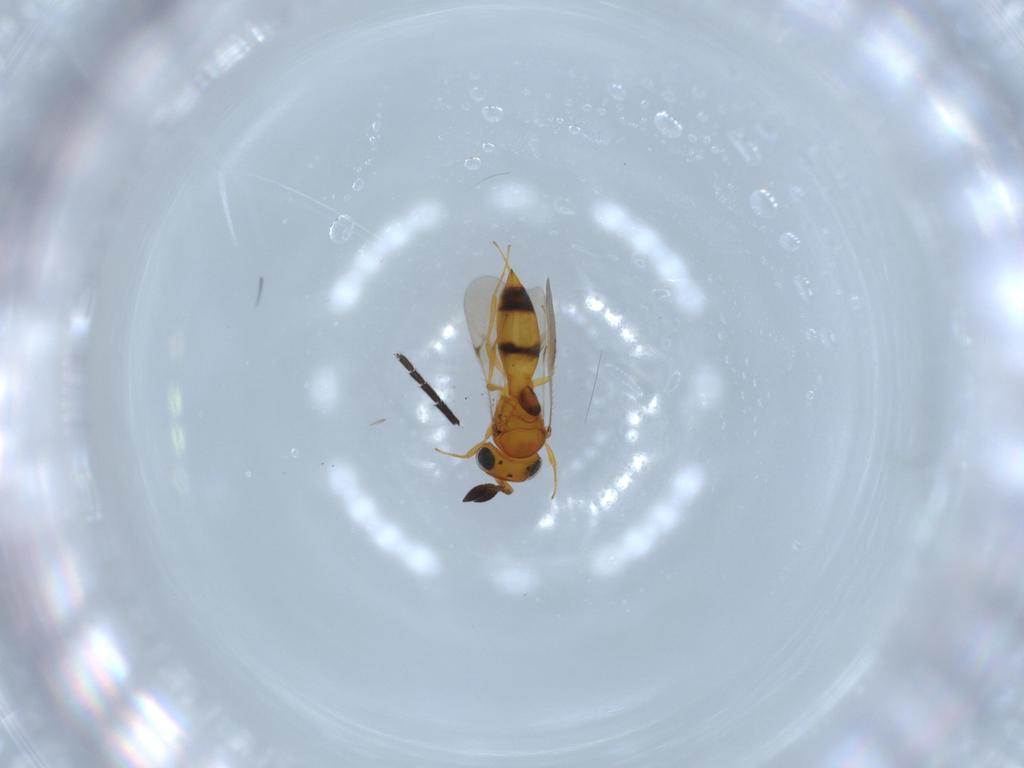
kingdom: Animalia
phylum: Arthropoda
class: Insecta
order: Hymenoptera
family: Scelionidae
